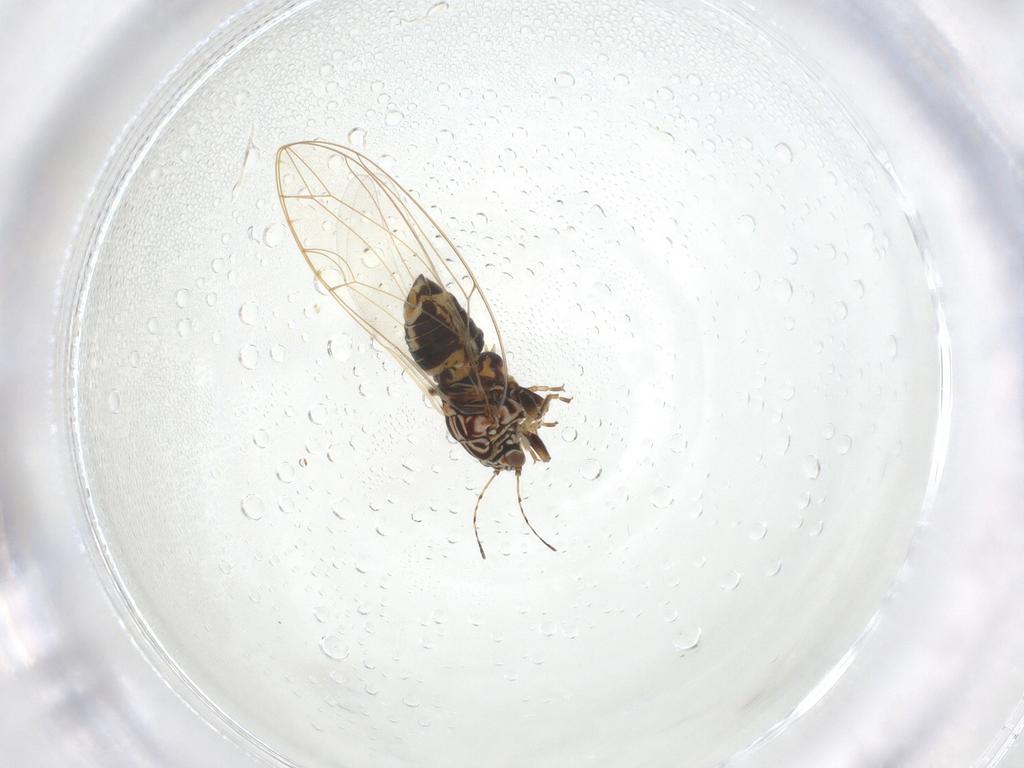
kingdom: Animalia
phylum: Arthropoda
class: Insecta
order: Hemiptera
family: Triozidae
